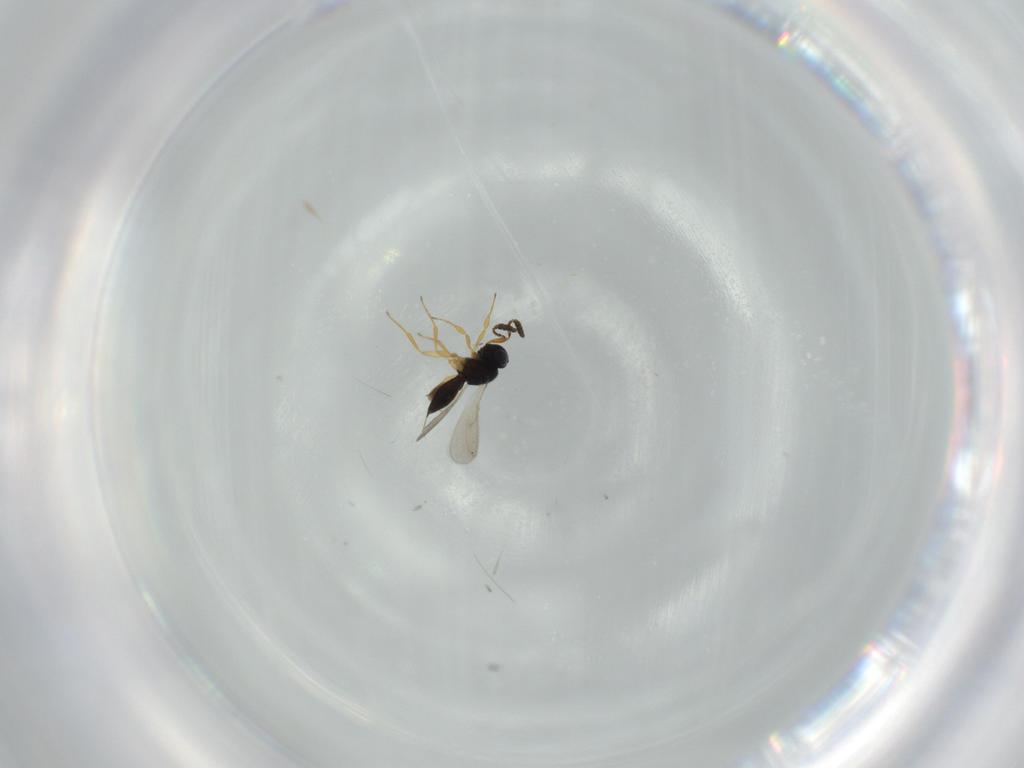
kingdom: Animalia
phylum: Arthropoda
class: Insecta
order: Hymenoptera
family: Scelionidae
